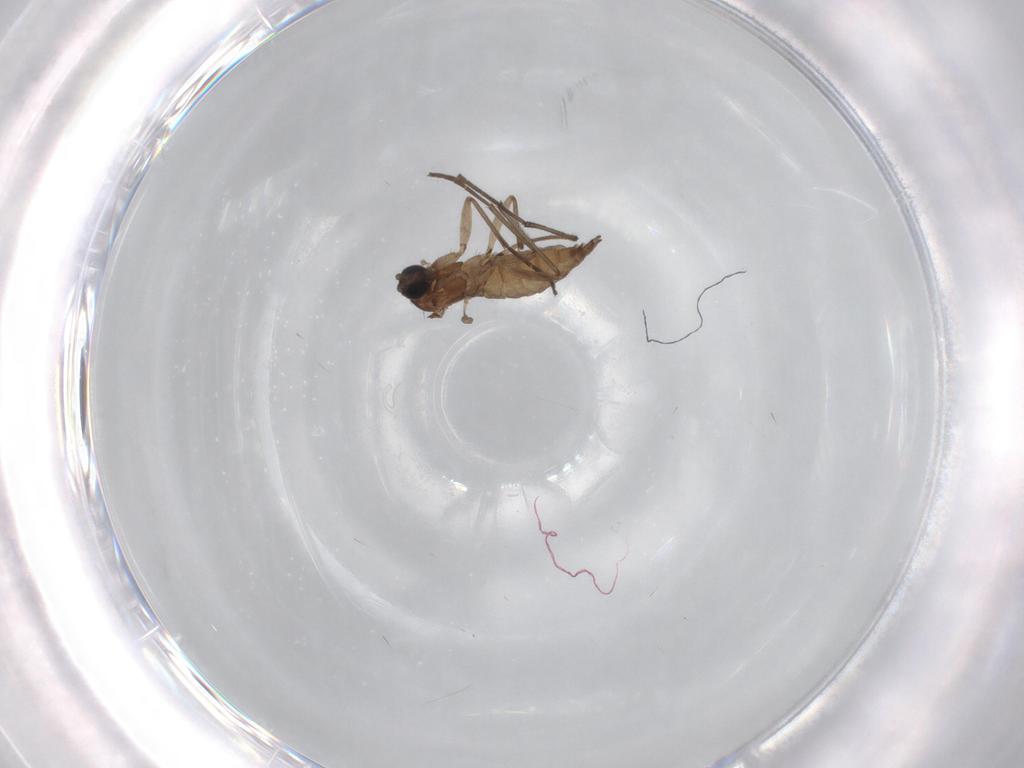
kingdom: Animalia
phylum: Arthropoda
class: Insecta
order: Diptera
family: Sciaridae
